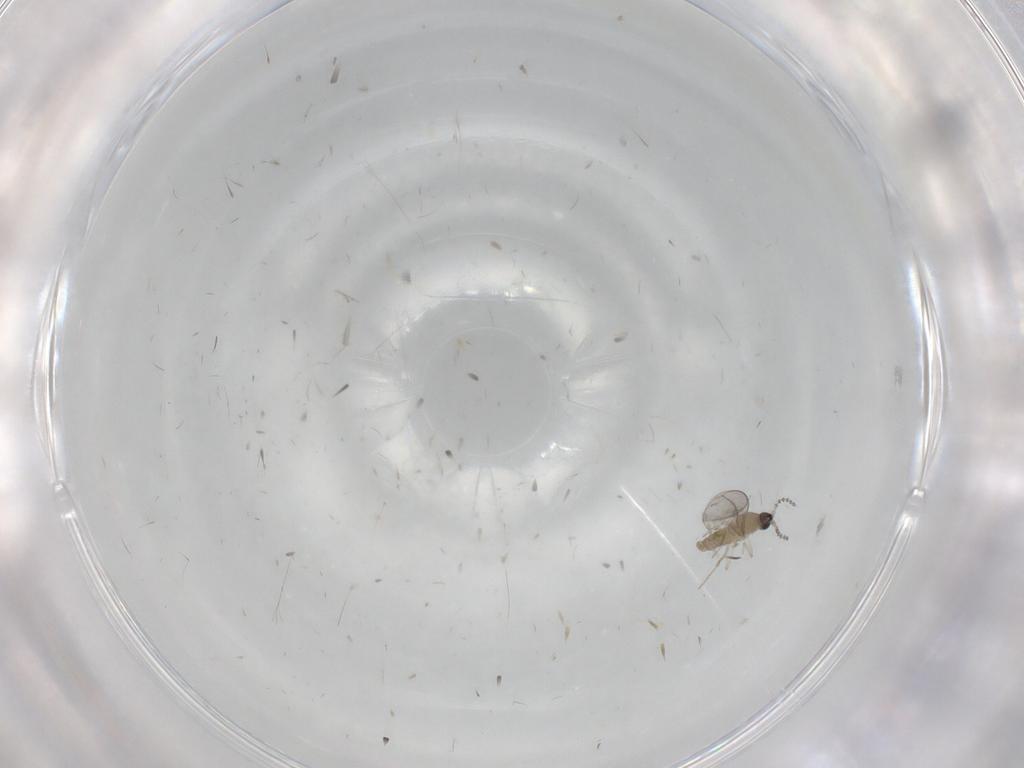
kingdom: Animalia
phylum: Arthropoda
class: Insecta
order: Diptera
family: Cecidomyiidae
